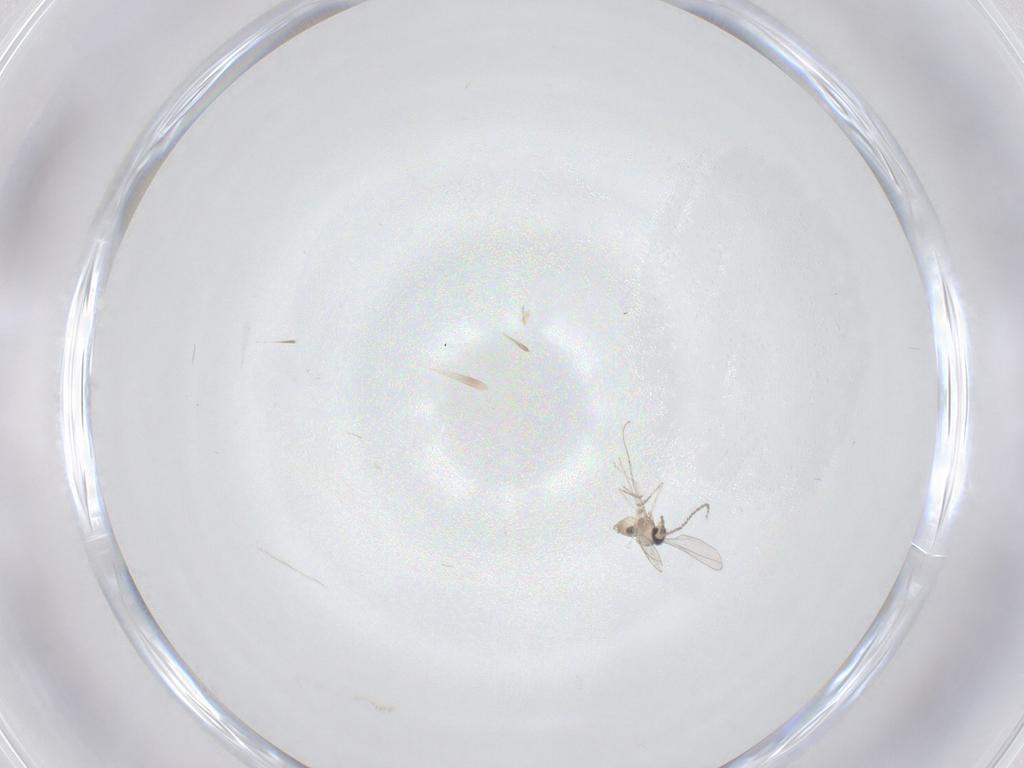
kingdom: Animalia
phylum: Arthropoda
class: Insecta
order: Diptera
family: Cecidomyiidae
